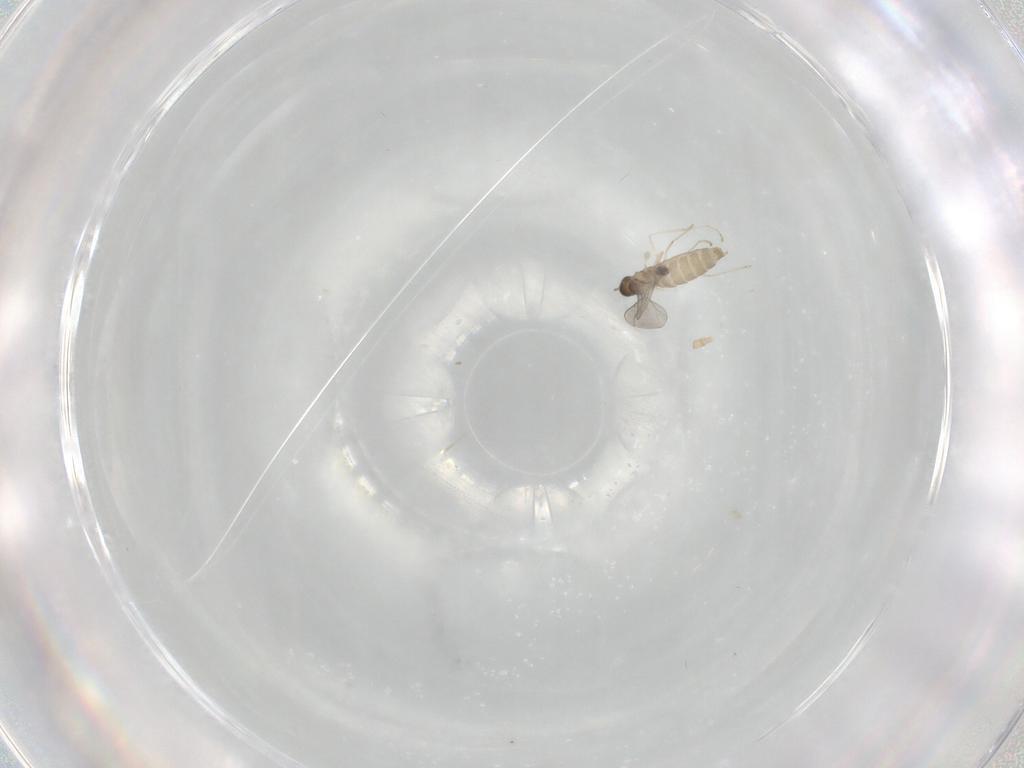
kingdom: Animalia
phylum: Arthropoda
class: Insecta
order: Diptera
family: Cecidomyiidae
